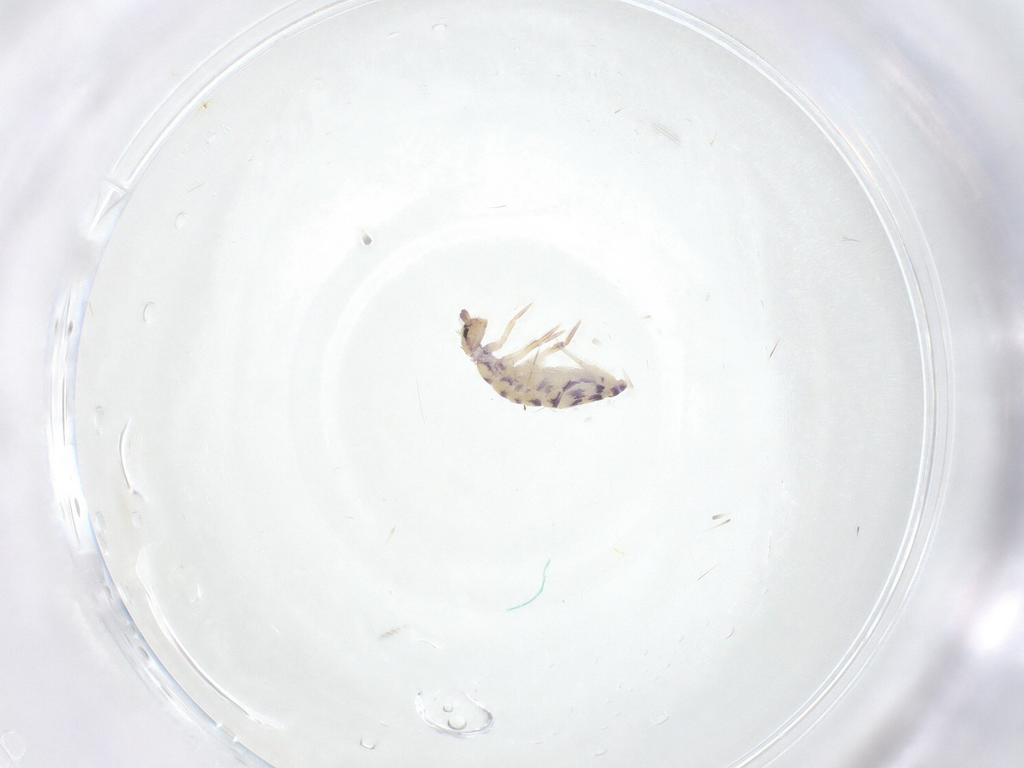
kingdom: Animalia
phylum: Arthropoda
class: Collembola
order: Entomobryomorpha
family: Entomobryidae
